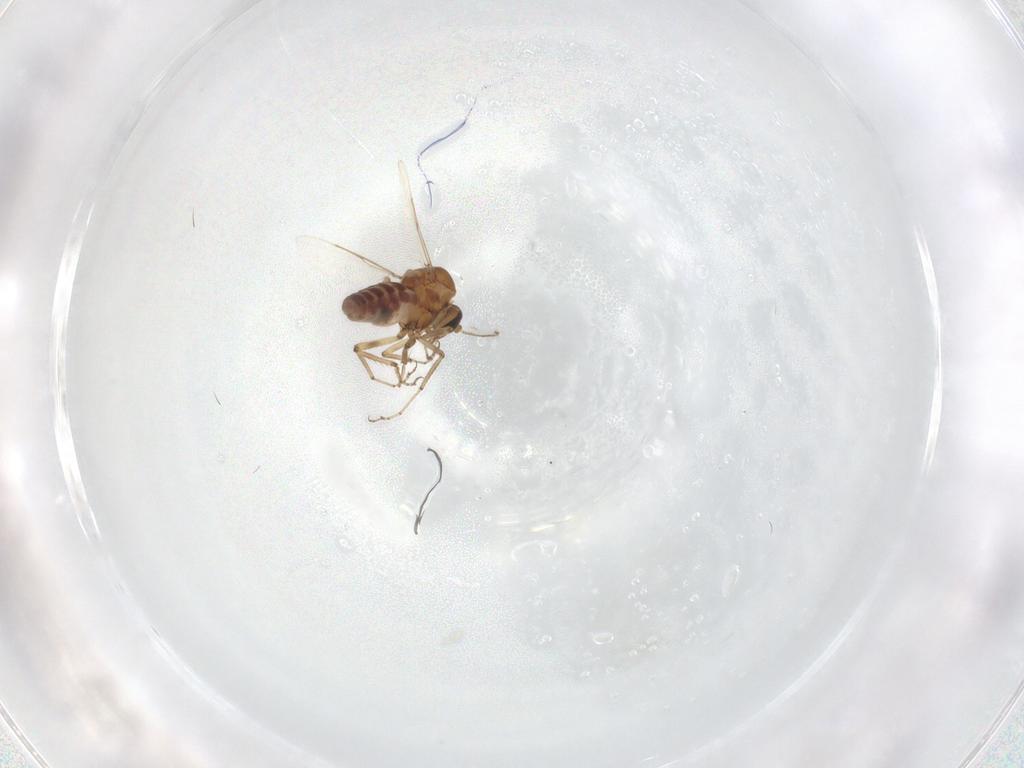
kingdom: Animalia
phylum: Arthropoda
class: Insecta
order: Diptera
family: Ceratopogonidae
